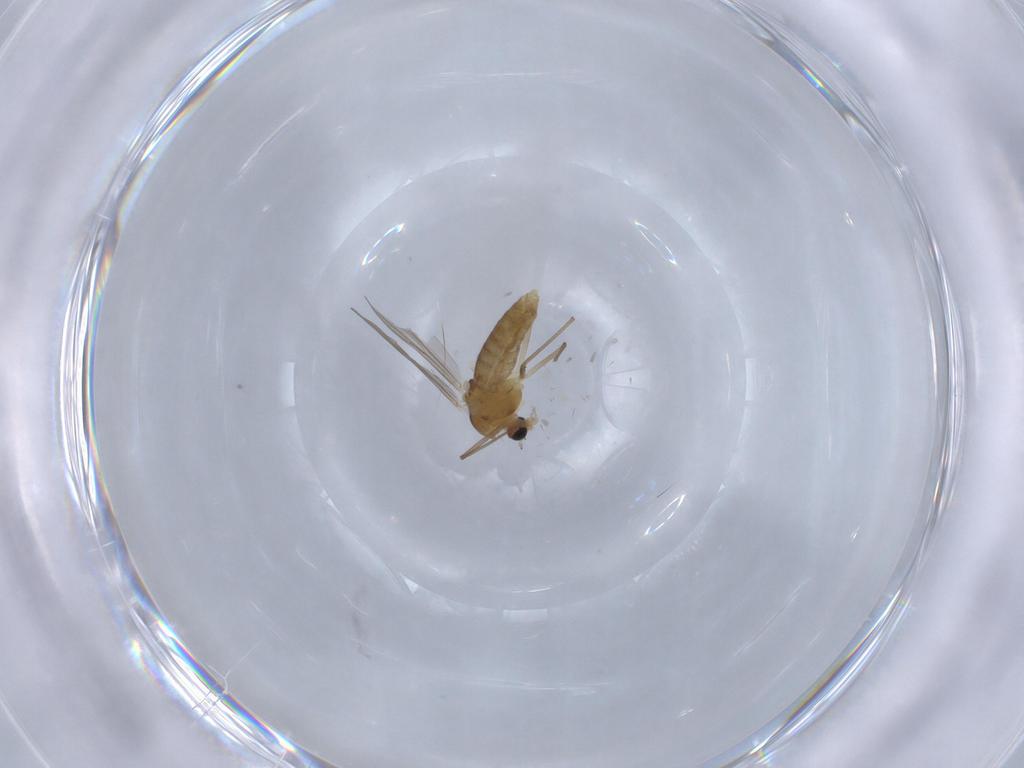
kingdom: Animalia
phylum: Arthropoda
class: Insecta
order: Diptera
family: Chironomidae
